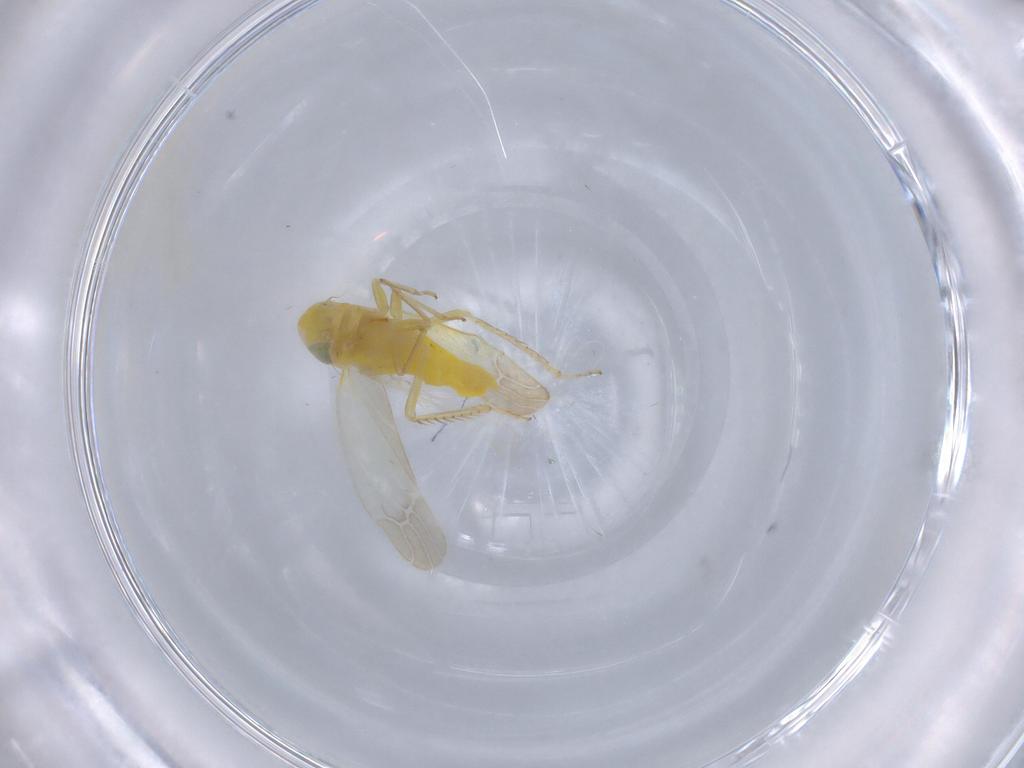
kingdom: Animalia
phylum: Arthropoda
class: Insecta
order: Hemiptera
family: Cicadellidae
